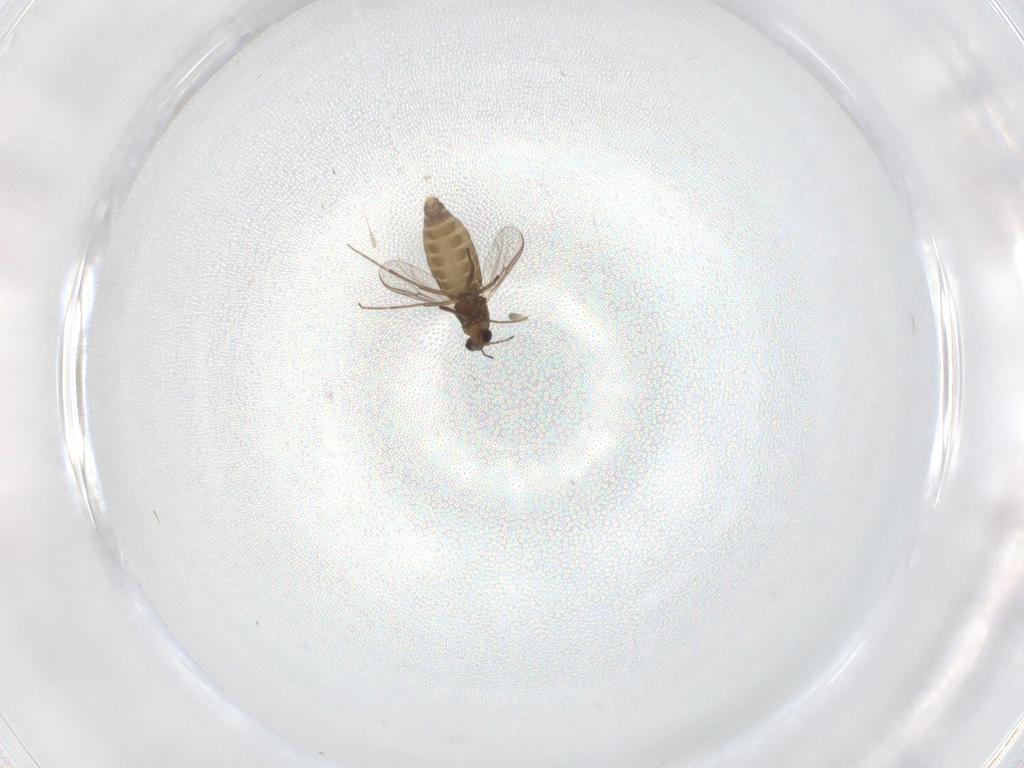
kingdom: Animalia
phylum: Arthropoda
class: Insecta
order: Diptera
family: Chironomidae
